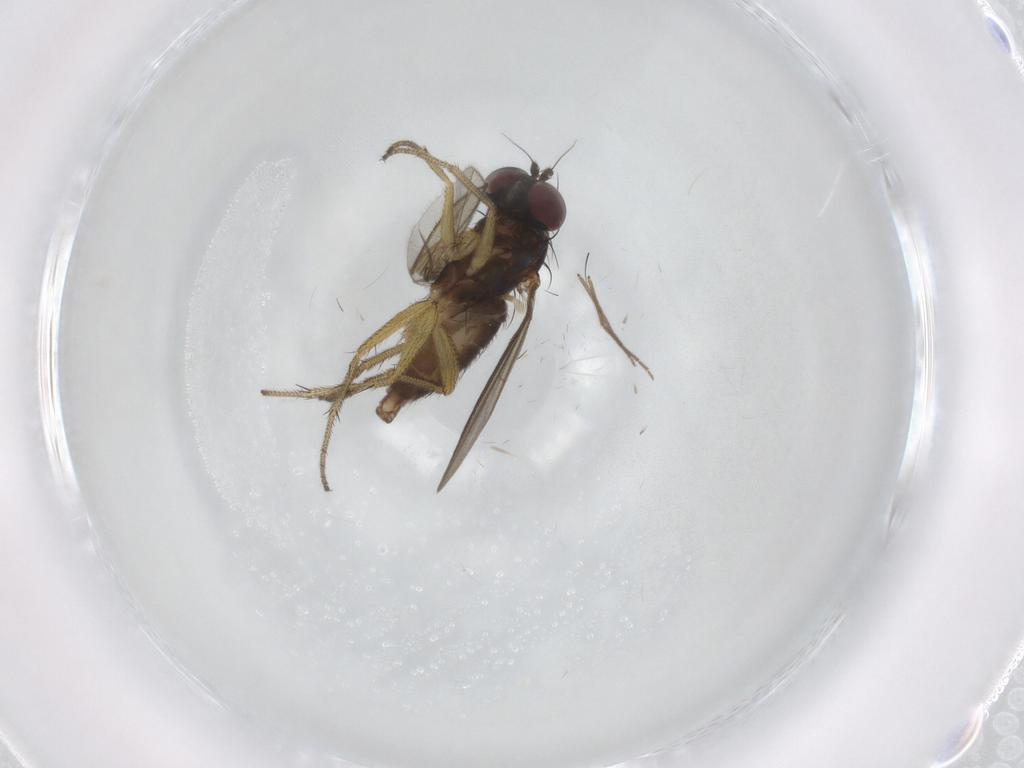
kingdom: Animalia
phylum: Arthropoda
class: Insecta
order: Diptera
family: Chironomidae
